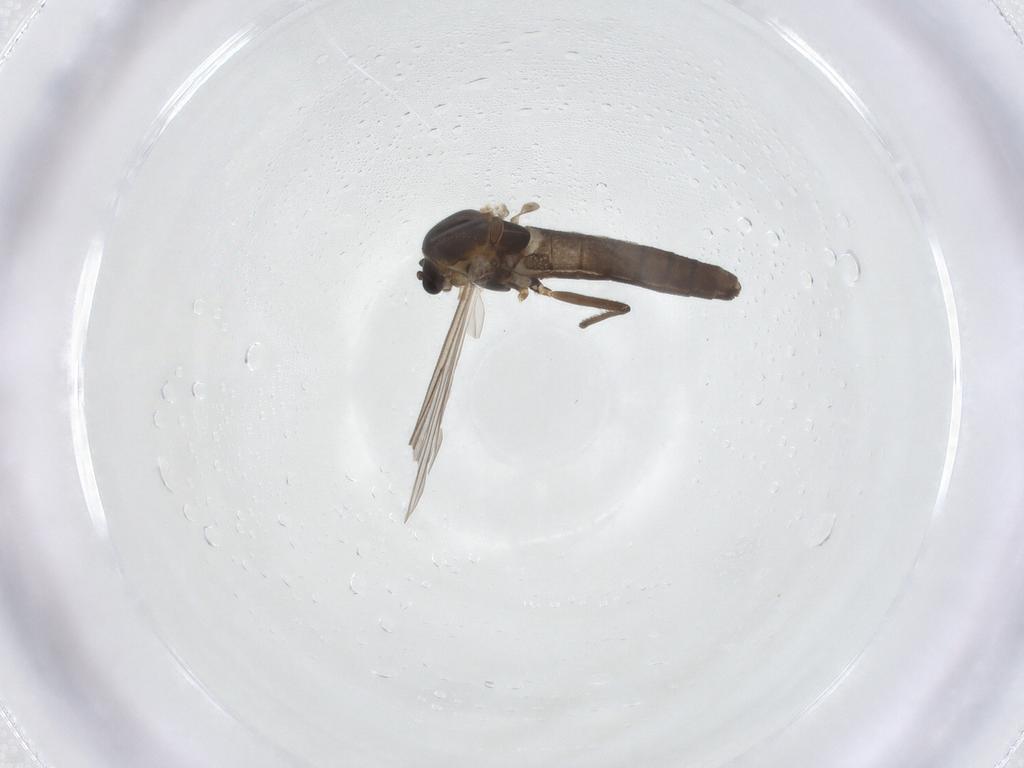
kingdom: Animalia
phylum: Arthropoda
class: Insecta
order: Diptera
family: Chironomidae
